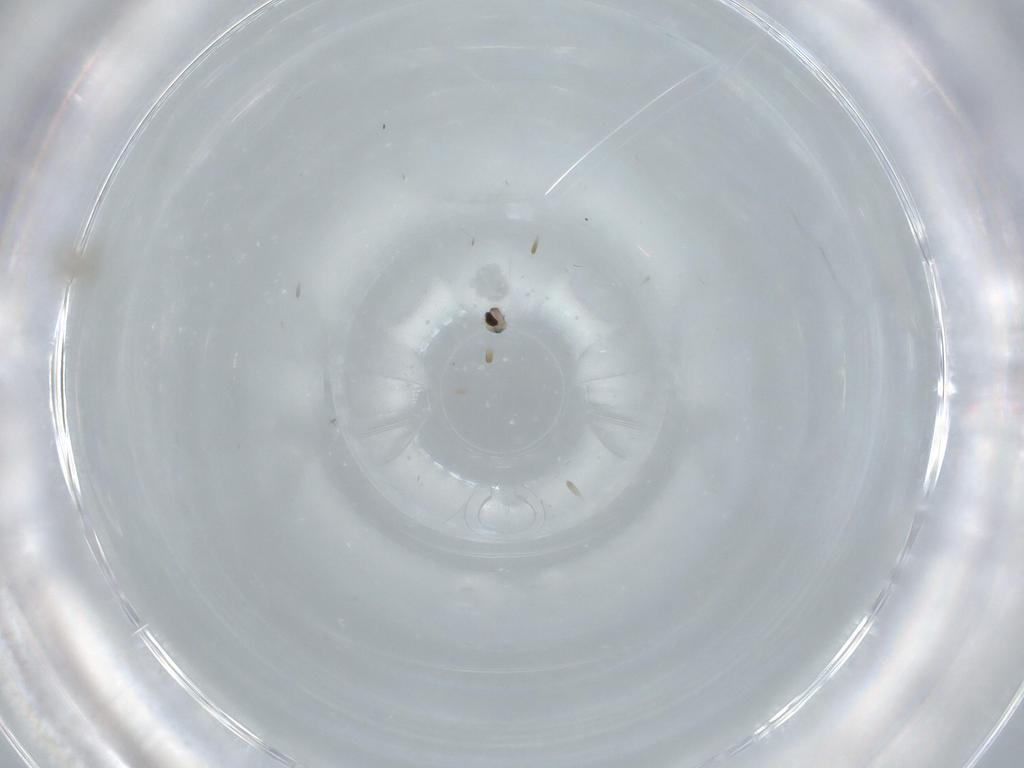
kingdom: Animalia
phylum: Arthropoda
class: Insecta
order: Diptera
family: Cecidomyiidae
